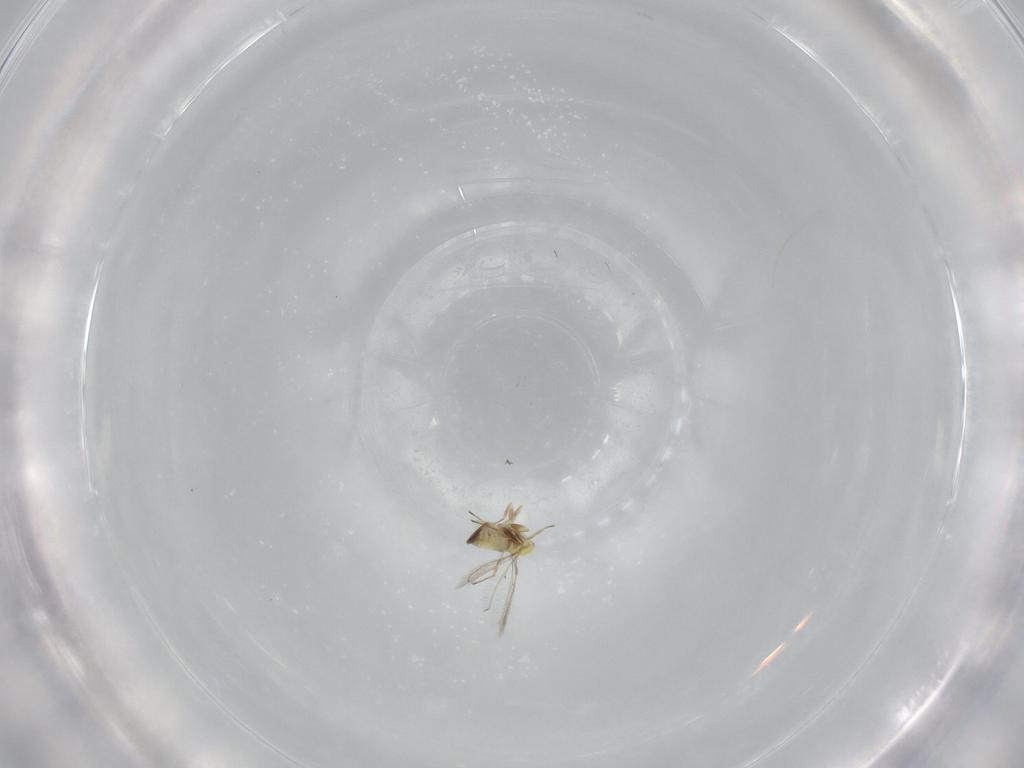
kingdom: Animalia
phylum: Arthropoda
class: Insecta
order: Hymenoptera
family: Trichogrammatidae
